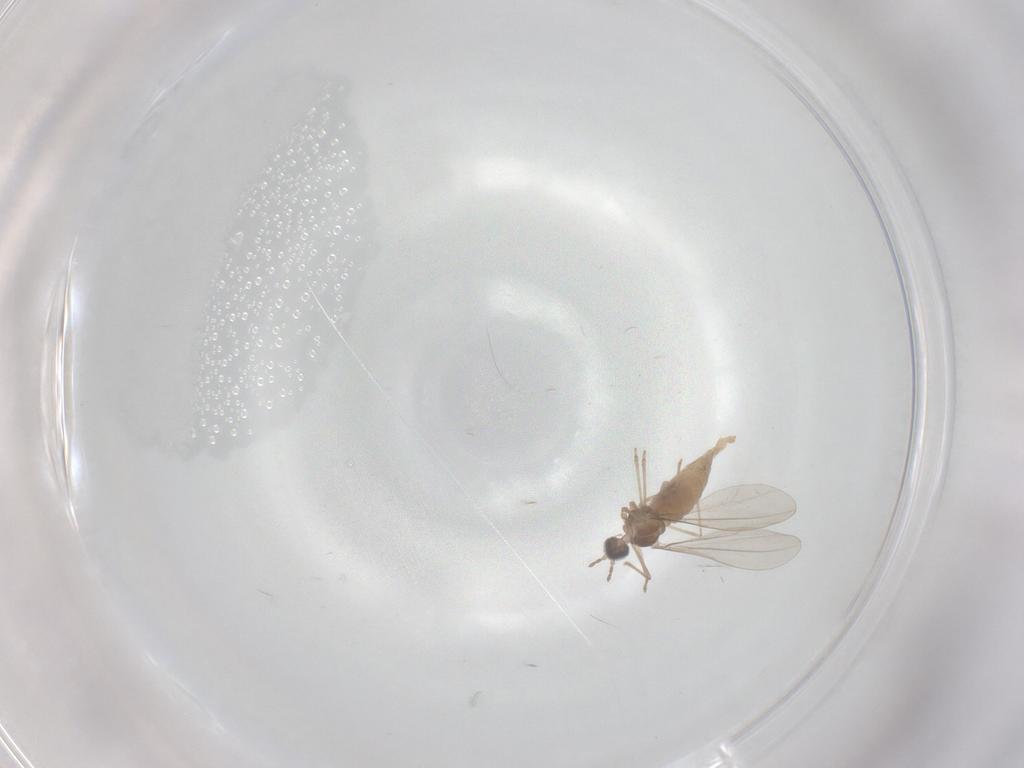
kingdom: Animalia
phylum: Arthropoda
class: Insecta
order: Diptera
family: Cecidomyiidae
